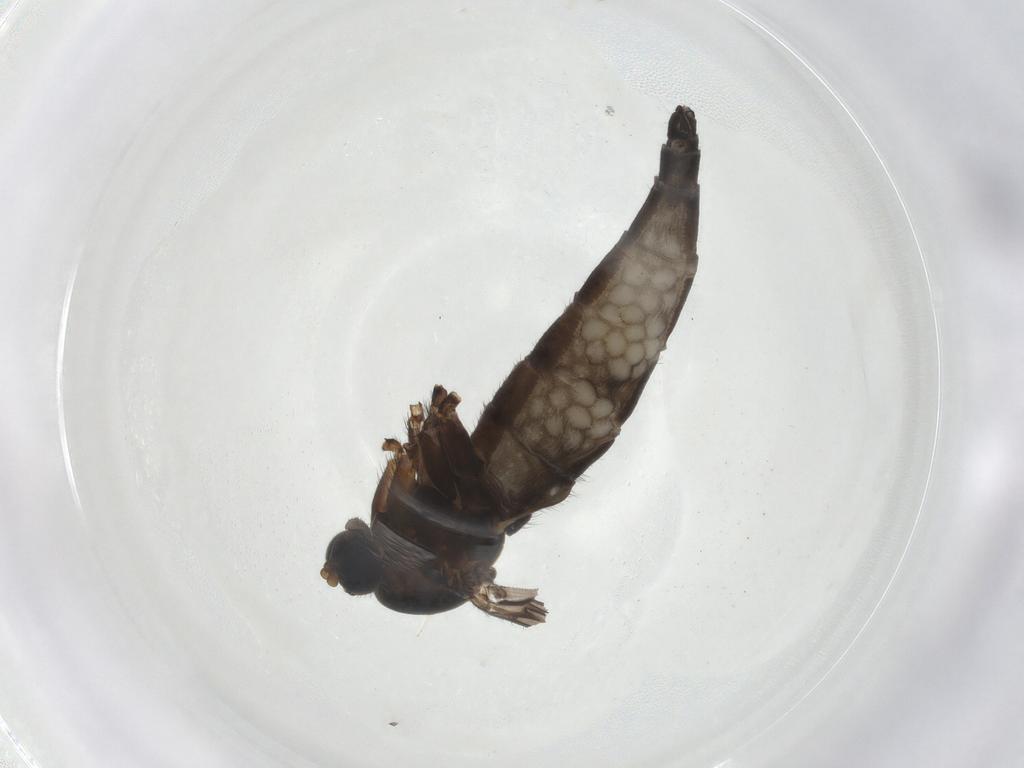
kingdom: Animalia
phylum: Arthropoda
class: Insecta
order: Diptera
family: Sciaridae
